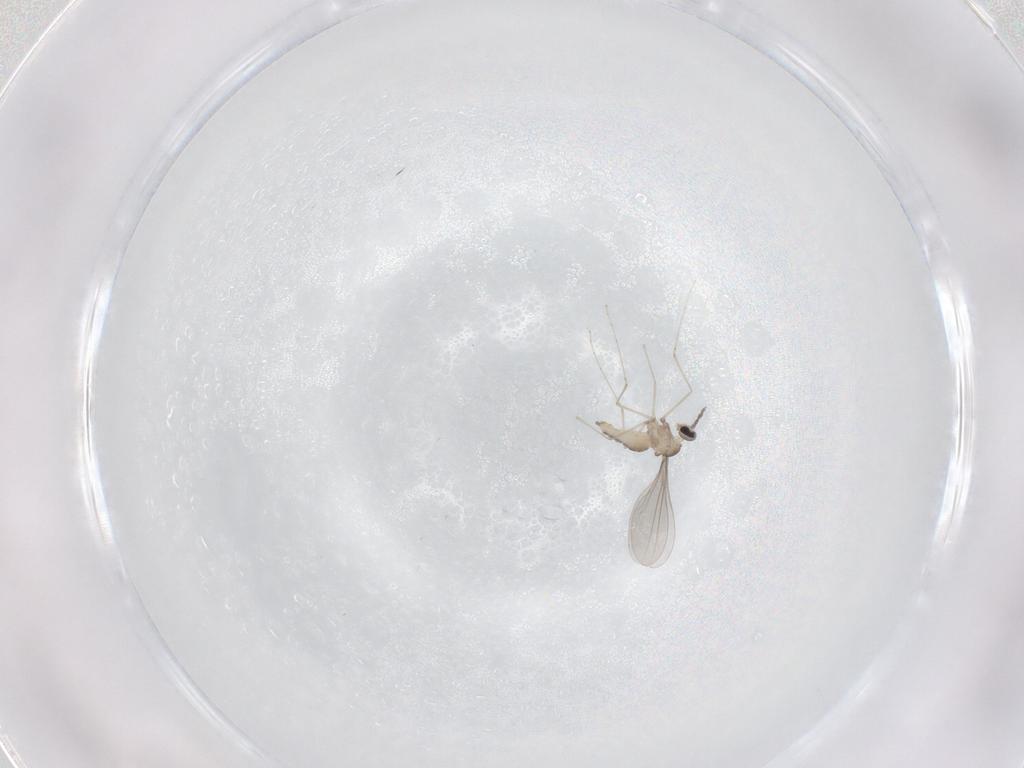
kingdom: Animalia
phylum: Arthropoda
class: Insecta
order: Diptera
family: Cecidomyiidae
